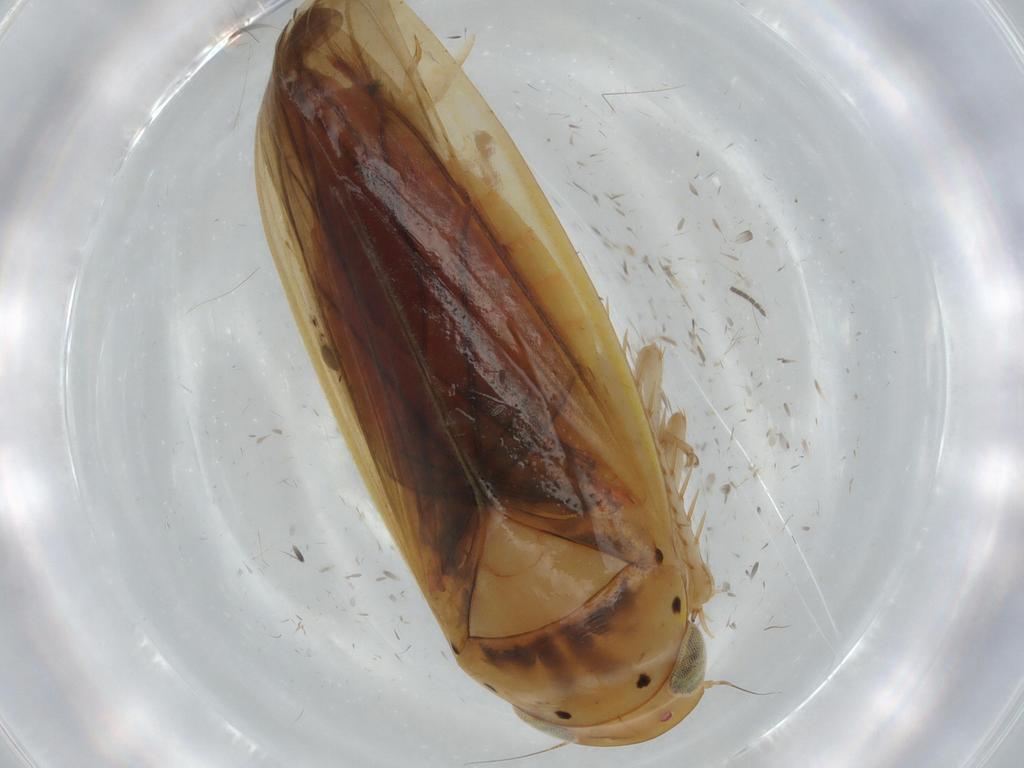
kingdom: Animalia
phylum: Arthropoda
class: Insecta
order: Hemiptera
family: Cicadellidae
